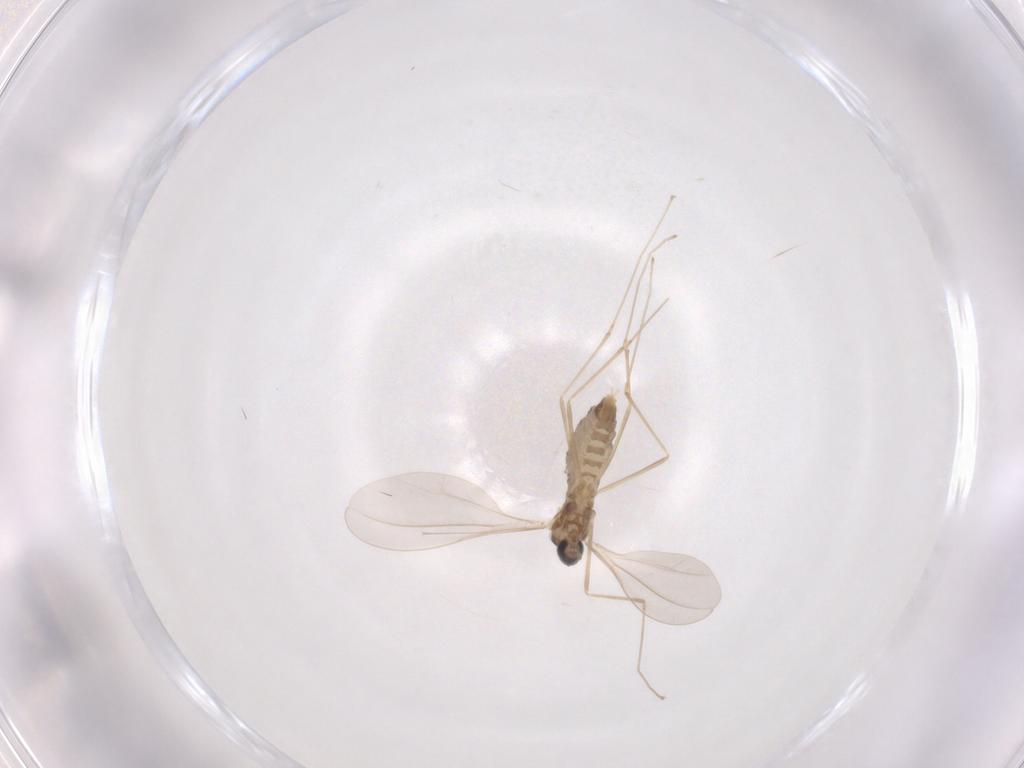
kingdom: Animalia
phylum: Arthropoda
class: Insecta
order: Diptera
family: Cecidomyiidae
